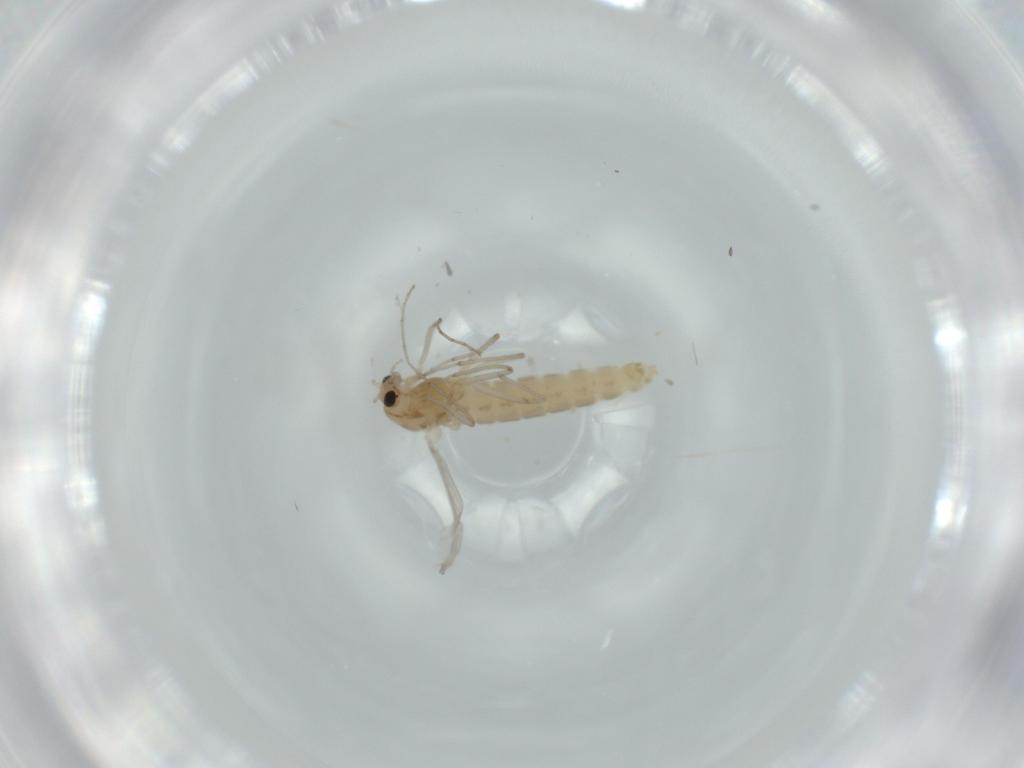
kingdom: Animalia
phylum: Arthropoda
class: Insecta
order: Diptera
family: Chironomidae
